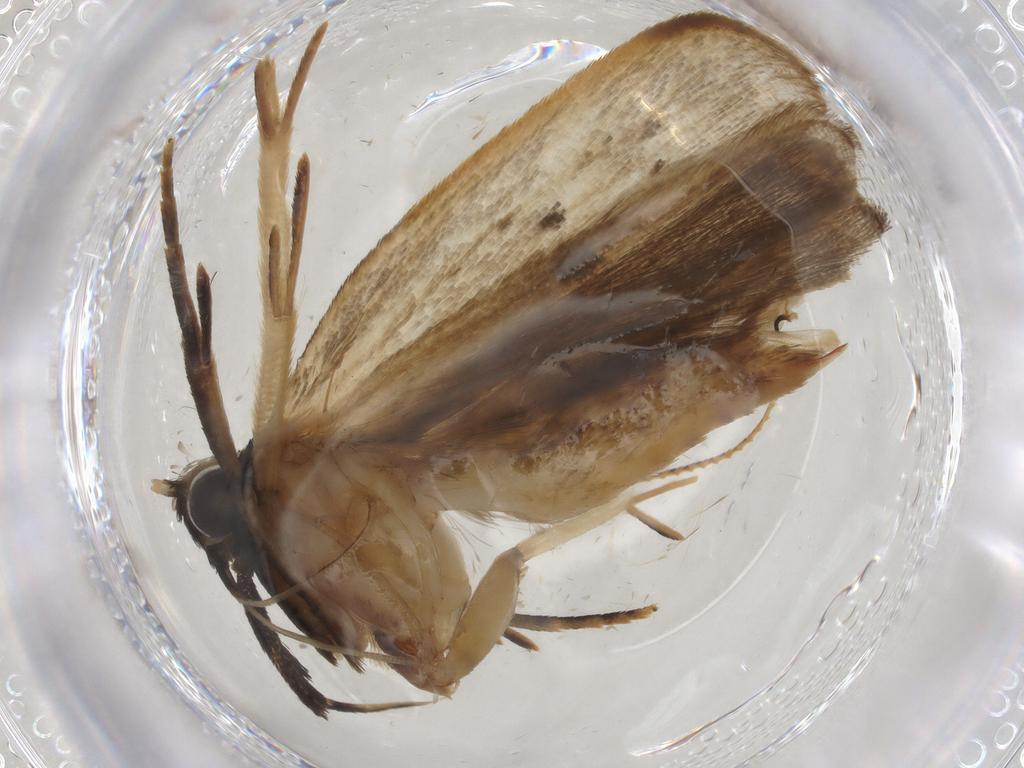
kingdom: Animalia
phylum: Arthropoda
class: Insecta
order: Lepidoptera
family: Gelechiidae
